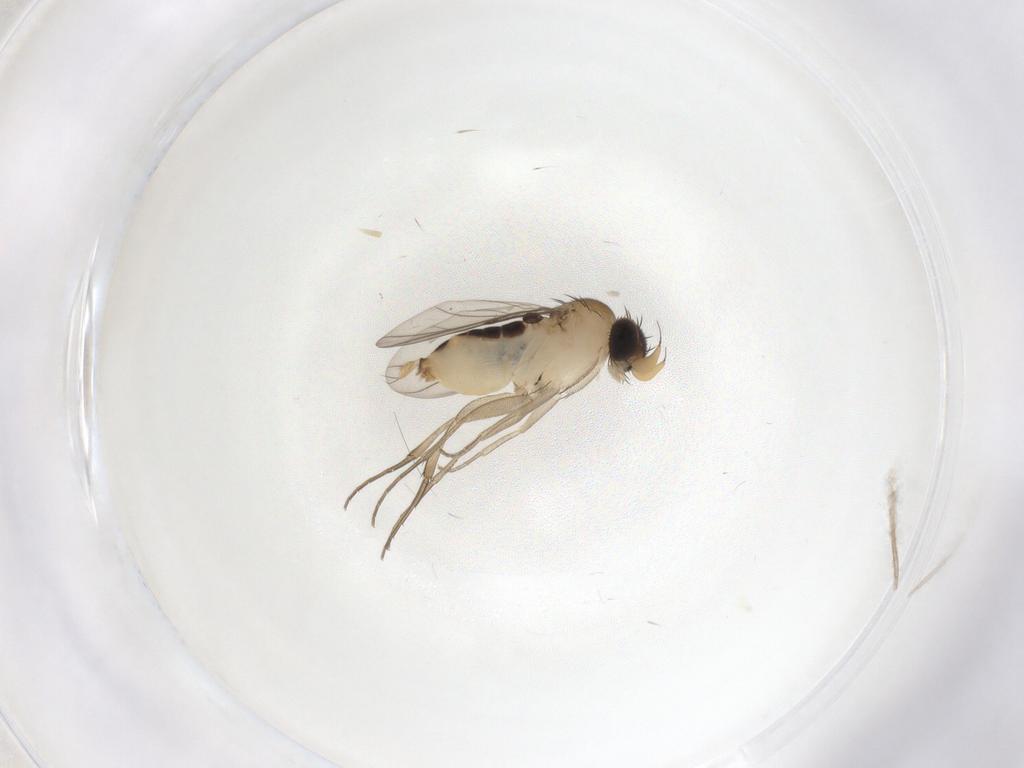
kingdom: Animalia
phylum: Arthropoda
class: Insecta
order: Diptera
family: Phoridae
